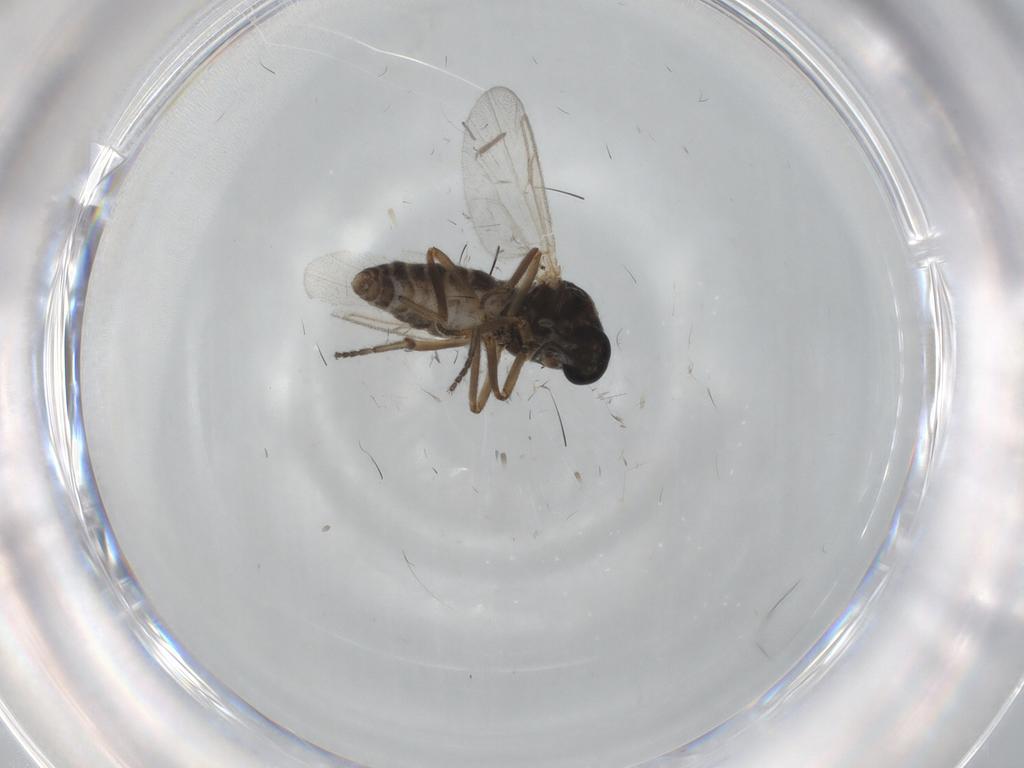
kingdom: Animalia
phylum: Arthropoda
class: Insecta
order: Diptera
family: Ceratopogonidae
